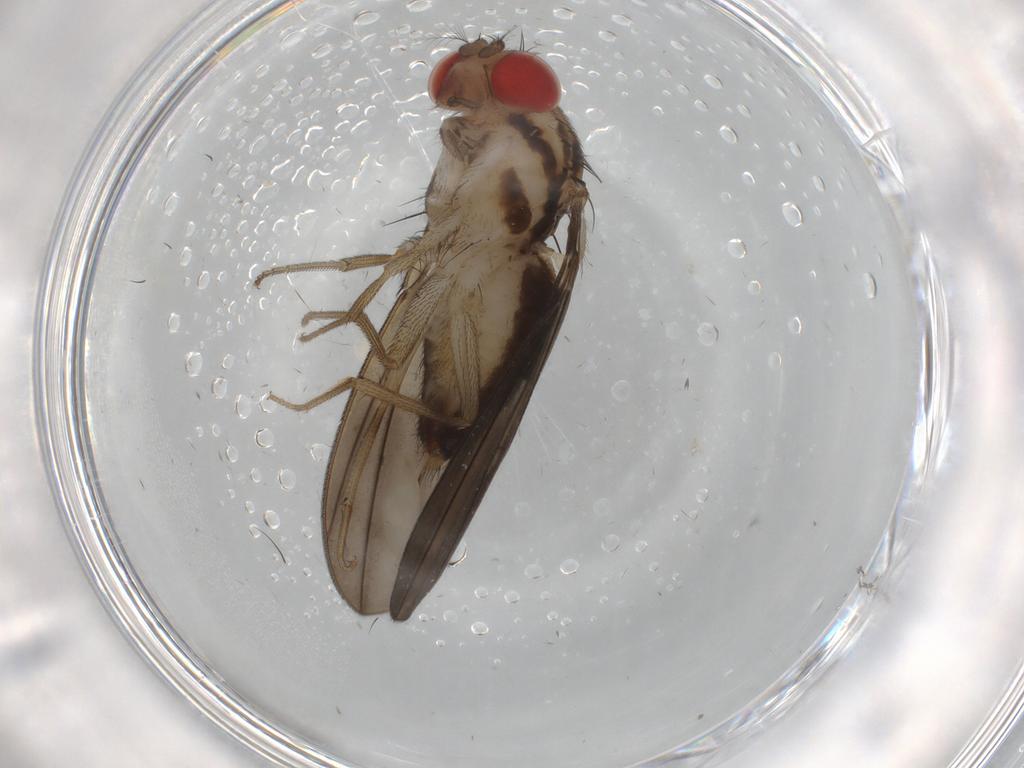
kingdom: Animalia
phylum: Arthropoda
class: Insecta
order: Diptera
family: Drosophilidae
